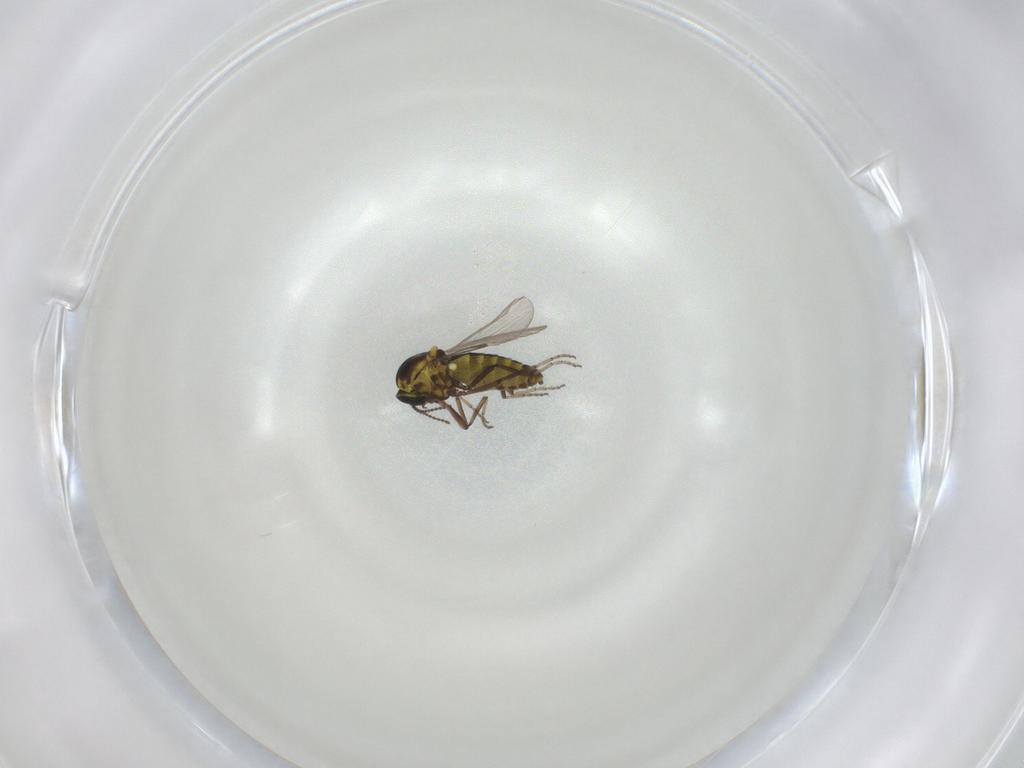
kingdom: Animalia
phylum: Arthropoda
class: Insecta
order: Diptera
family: Ceratopogonidae
